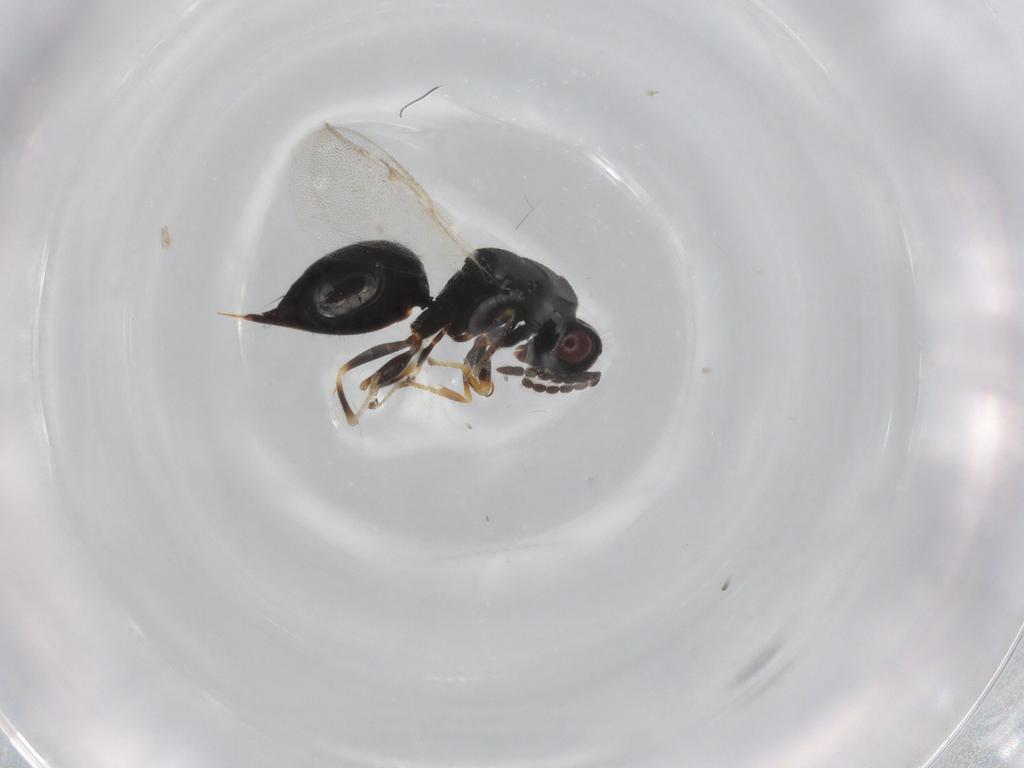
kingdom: Animalia
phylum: Arthropoda
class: Insecta
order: Hymenoptera
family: Eurytomidae
